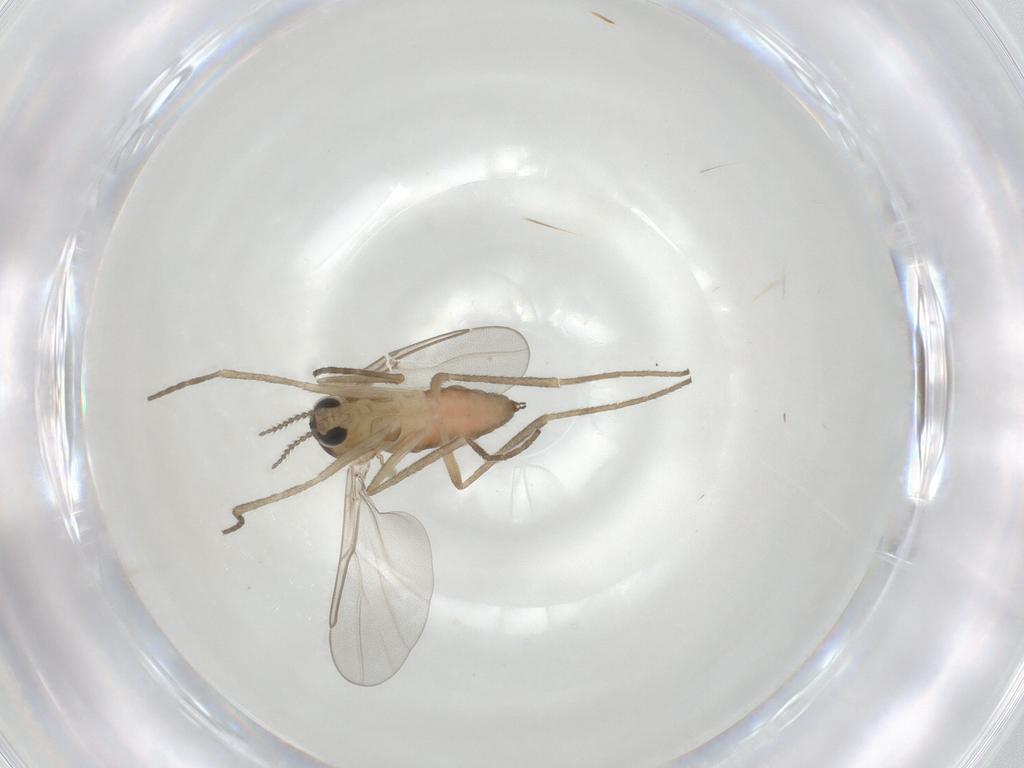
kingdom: Animalia
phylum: Arthropoda
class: Insecta
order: Diptera
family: Cecidomyiidae
